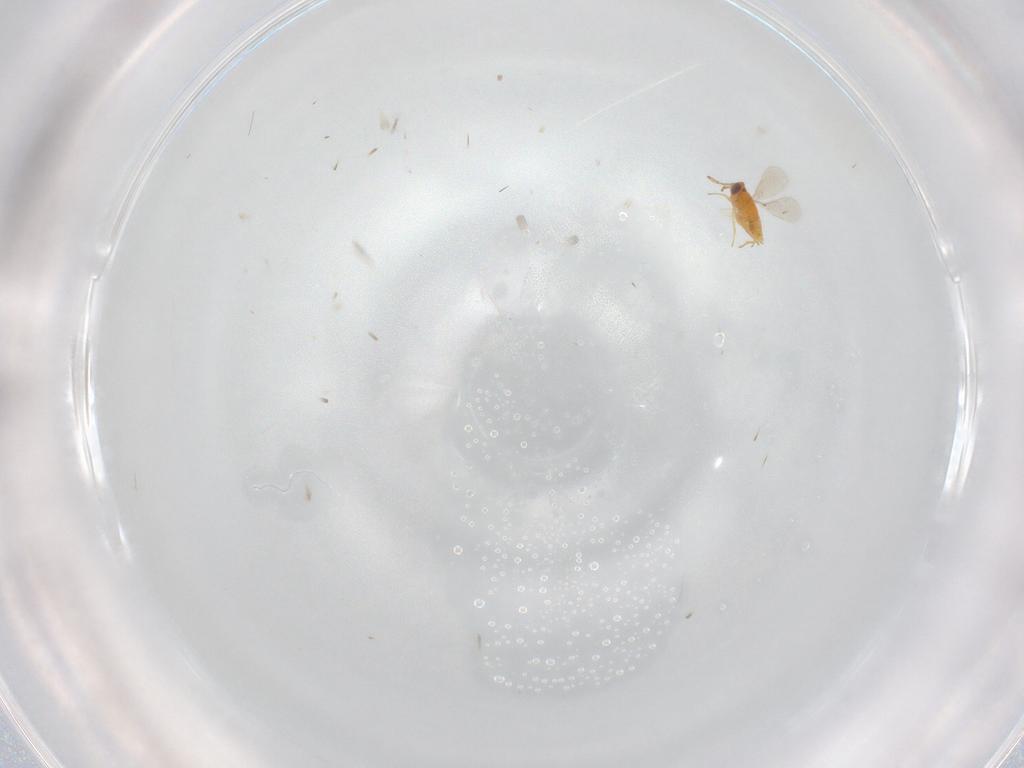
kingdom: Animalia
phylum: Arthropoda
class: Insecta
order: Hymenoptera
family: Aphelinidae
